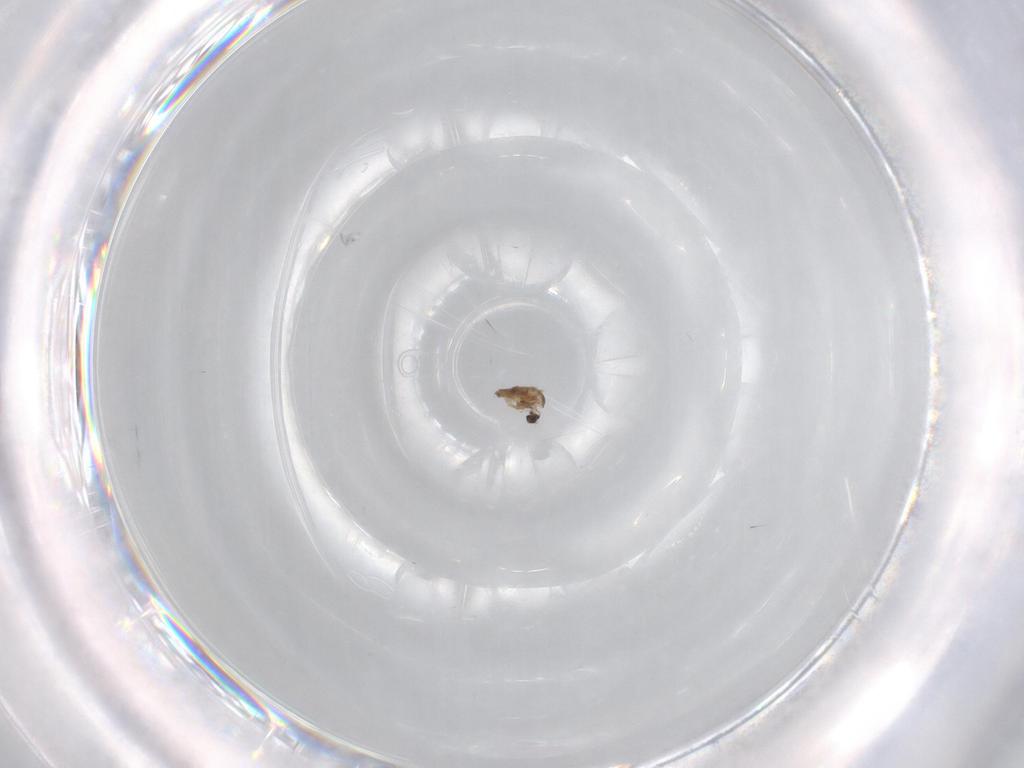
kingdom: Animalia
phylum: Arthropoda
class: Insecta
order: Diptera
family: Cecidomyiidae
